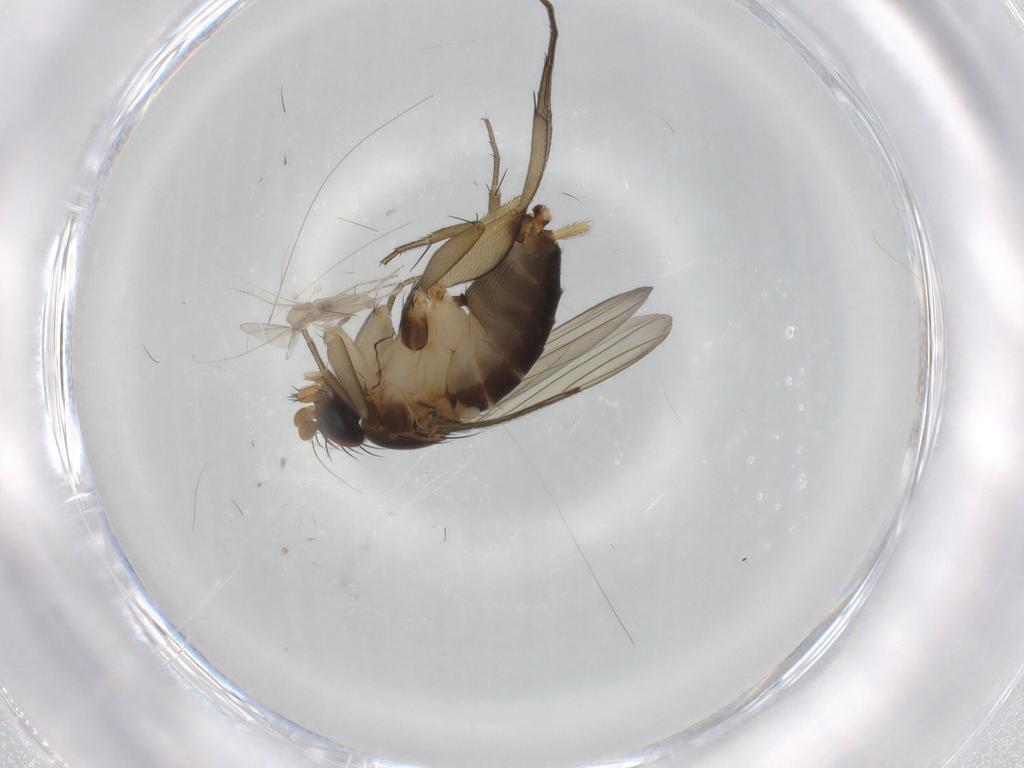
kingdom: Animalia
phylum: Arthropoda
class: Insecta
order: Diptera
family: Phoridae
